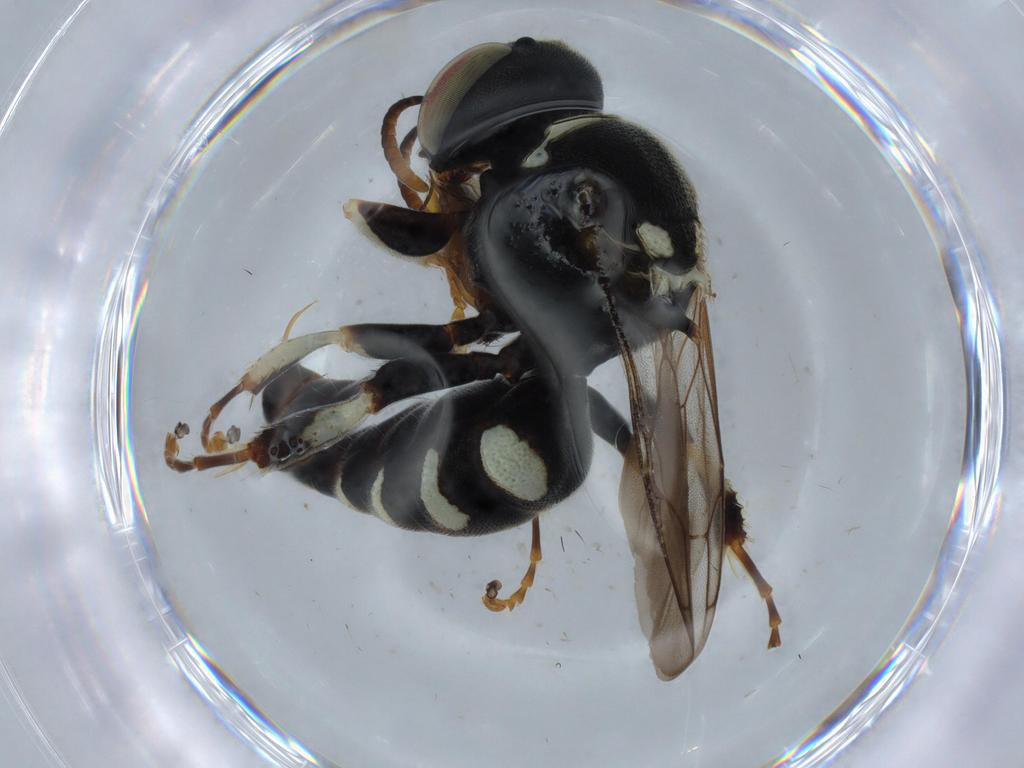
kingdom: Animalia
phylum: Arthropoda
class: Insecta
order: Hymenoptera
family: Crabronidae
